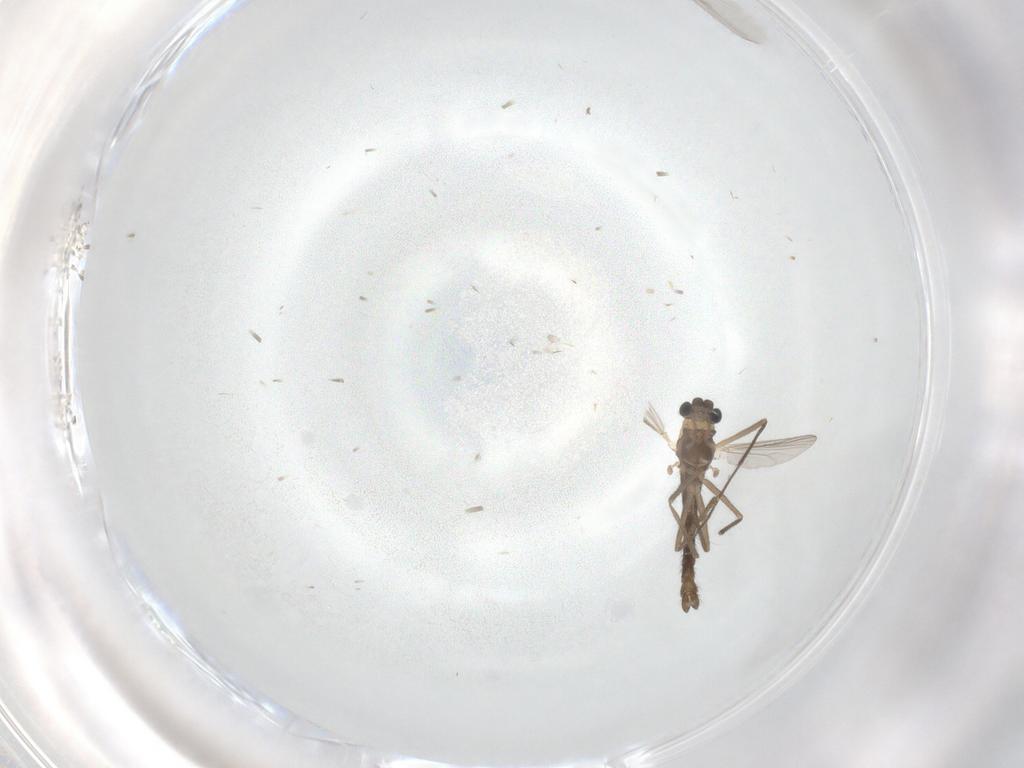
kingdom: Animalia
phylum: Arthropoda
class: Insecta
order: Diptera
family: Chironomidae
